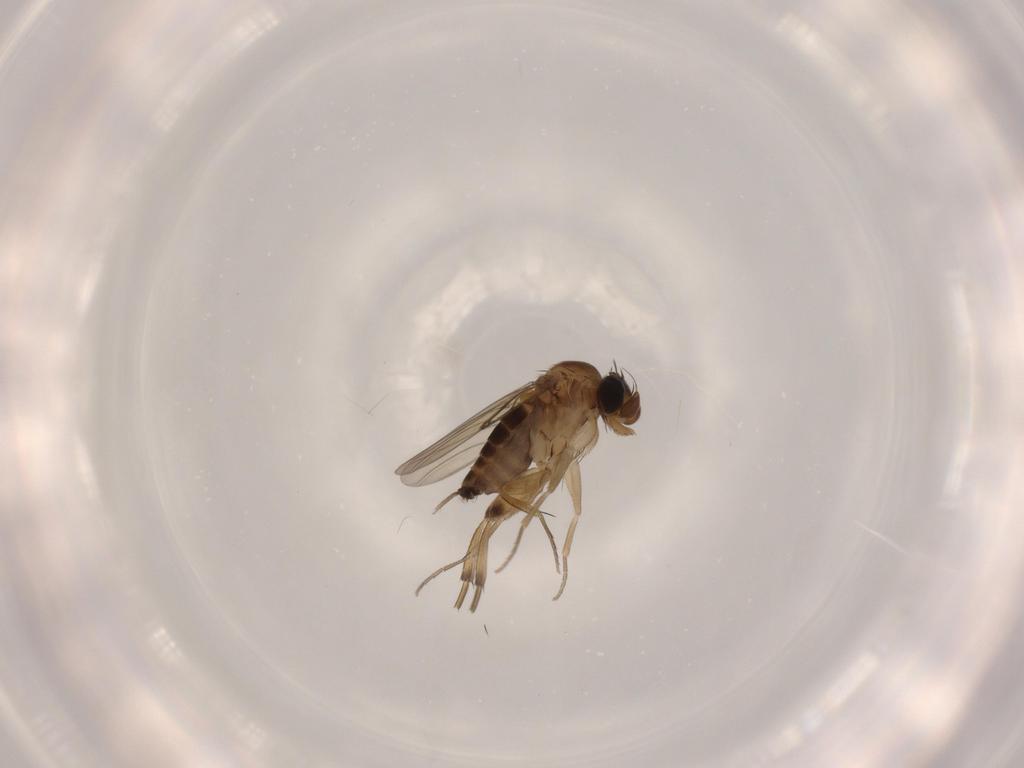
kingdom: Animalia
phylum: Arthropoda
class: Insecta
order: Diptera
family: Phoridae
